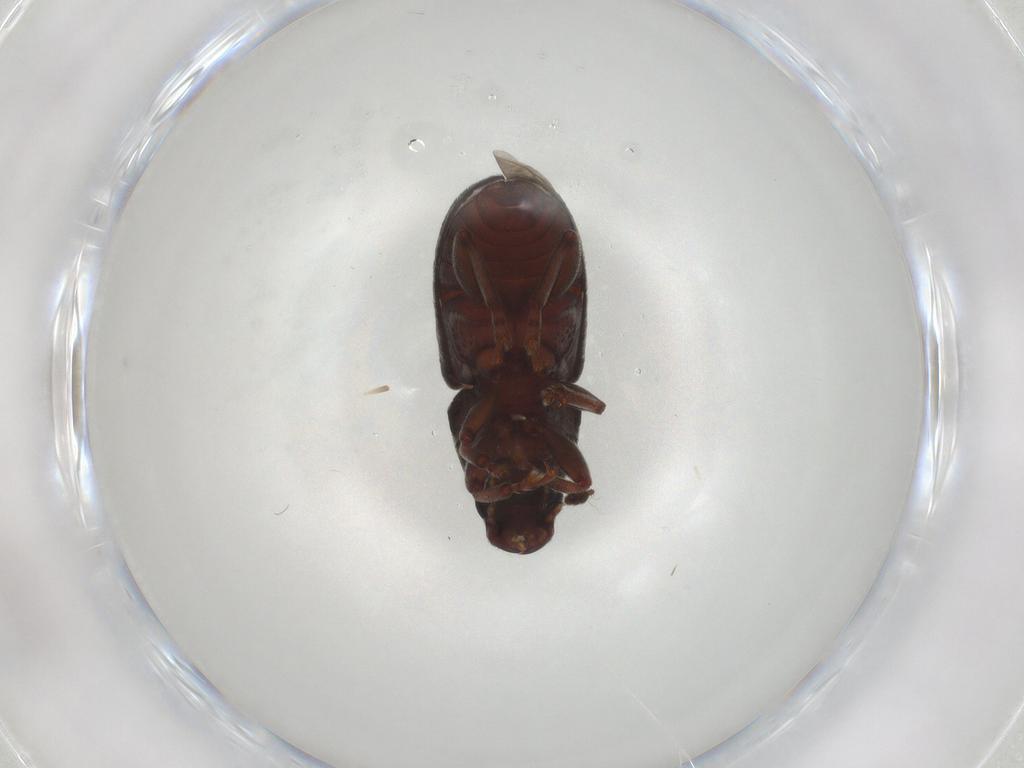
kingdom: Animalia
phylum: Arthropoda
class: Insecta
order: Coleoptera
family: Anthribidae
